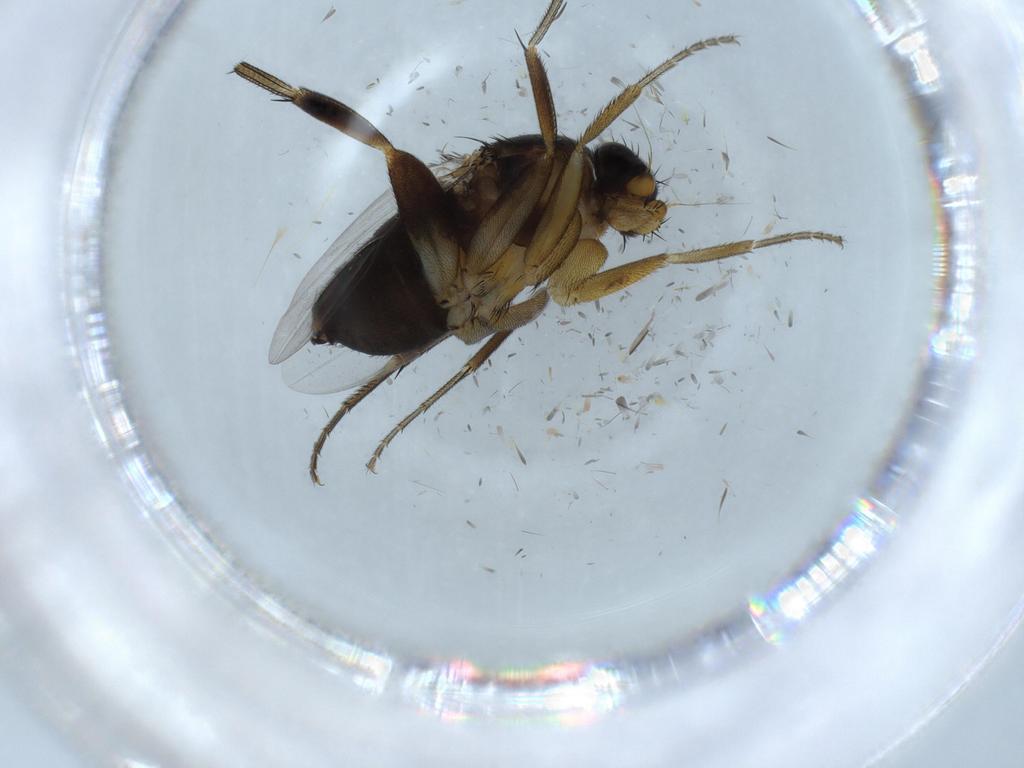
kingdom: Animalia
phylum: Arthropoda
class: Insecta
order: Diptera
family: Phoridae
